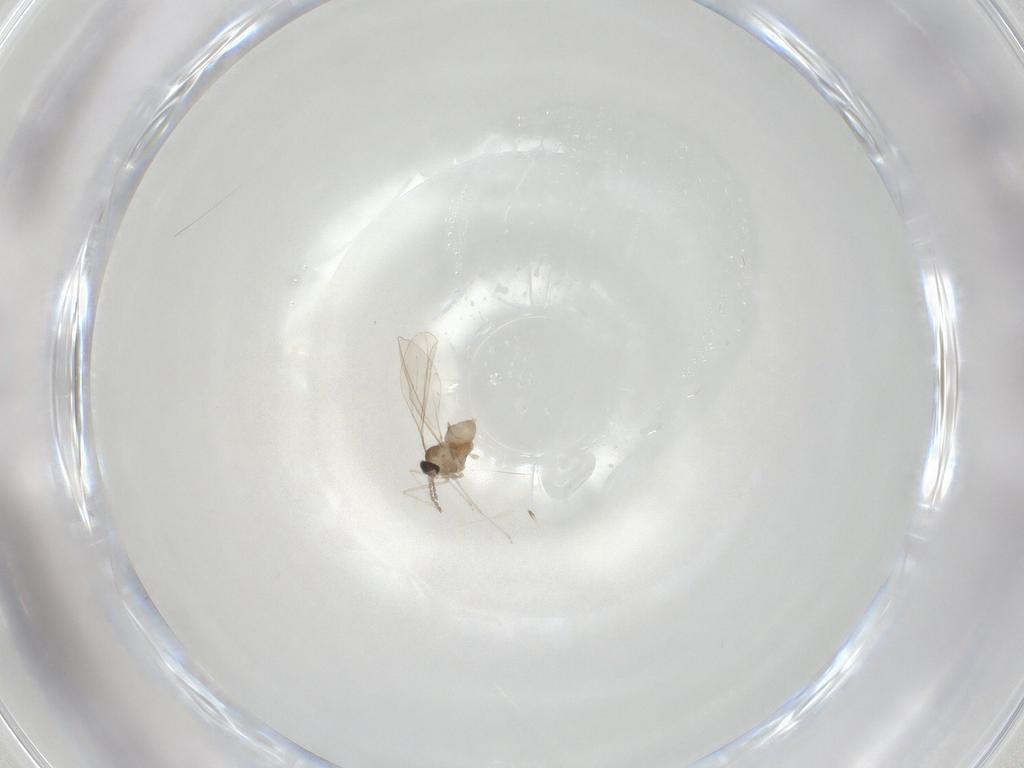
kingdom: Animalia
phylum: Arthropoda
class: Insecta
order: Diptera
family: Cecidomyiidae
